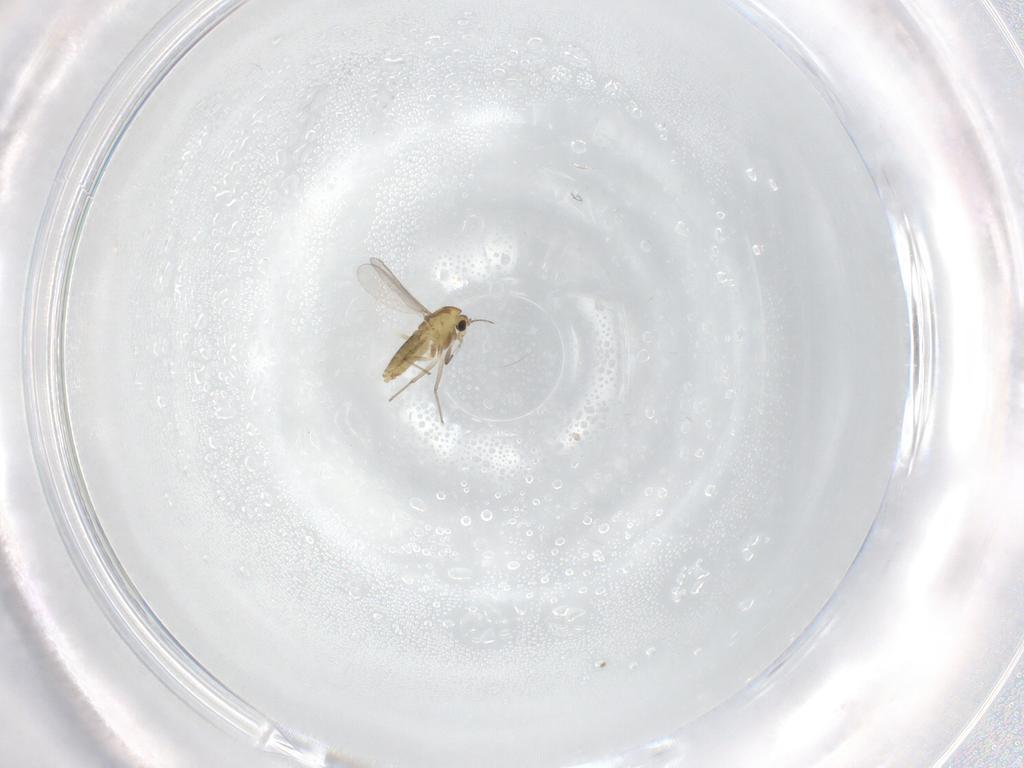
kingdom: Animalia
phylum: Arthropoda
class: Insecta
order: Diptera
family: Chironomidae
